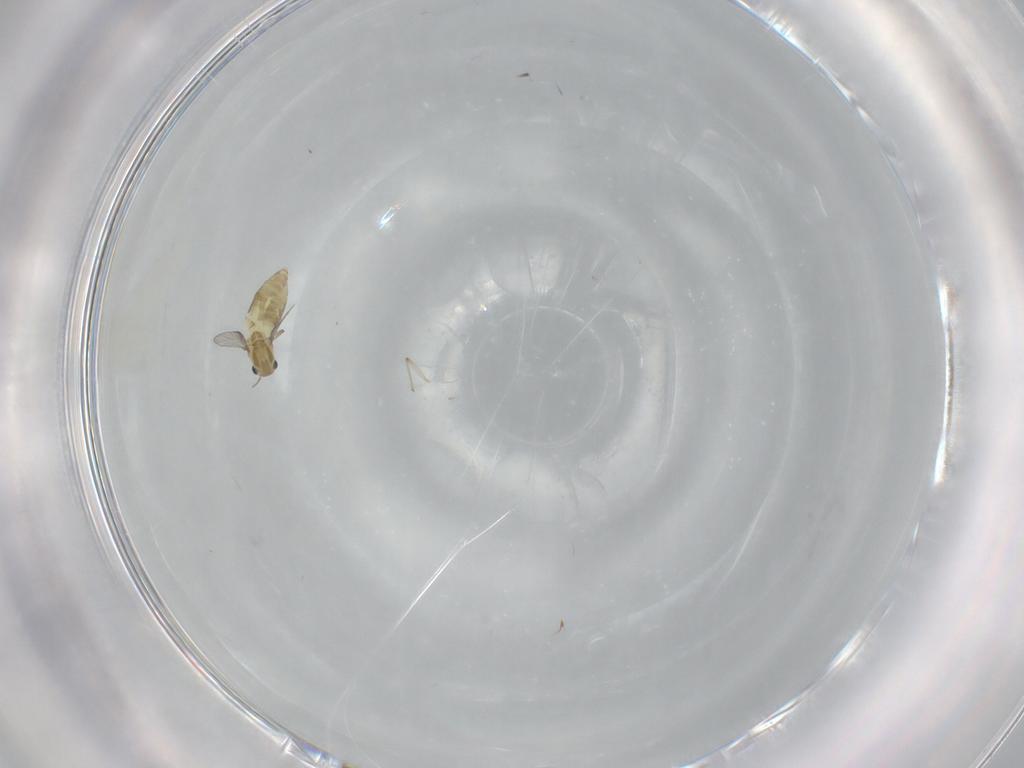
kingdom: Animalia
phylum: Arthropoda
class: Insecta
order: Diptera
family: Chironomidae
